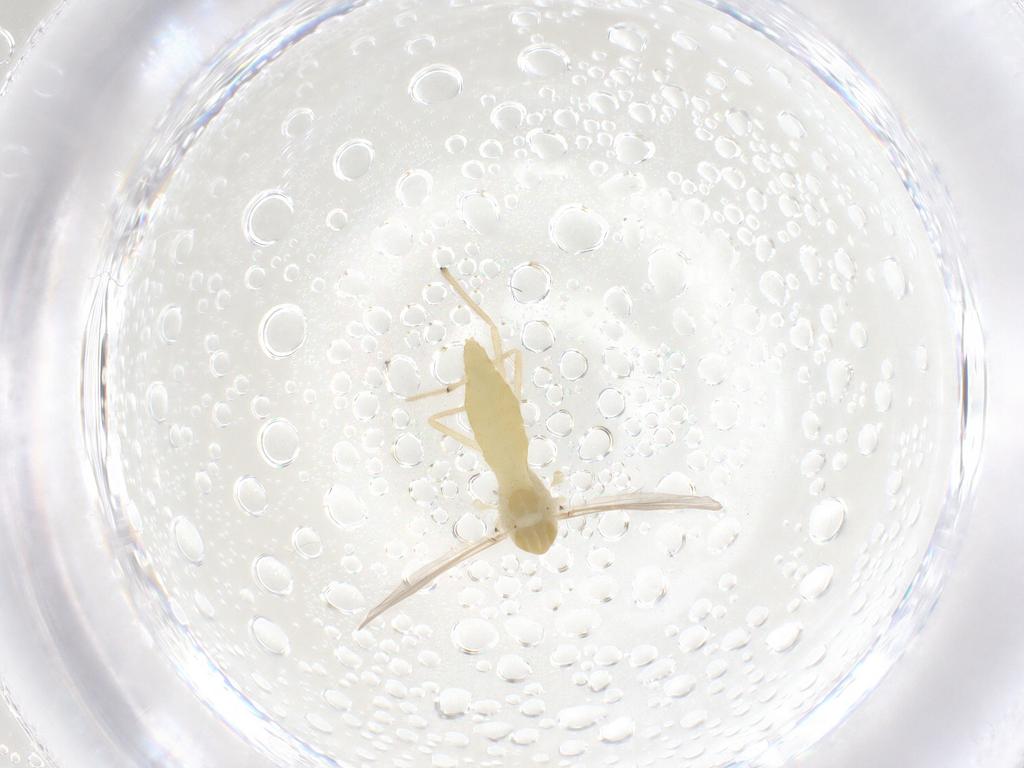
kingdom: Animalia
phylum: Arthropoda
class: Insecta
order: Diptera
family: Chironomidae
